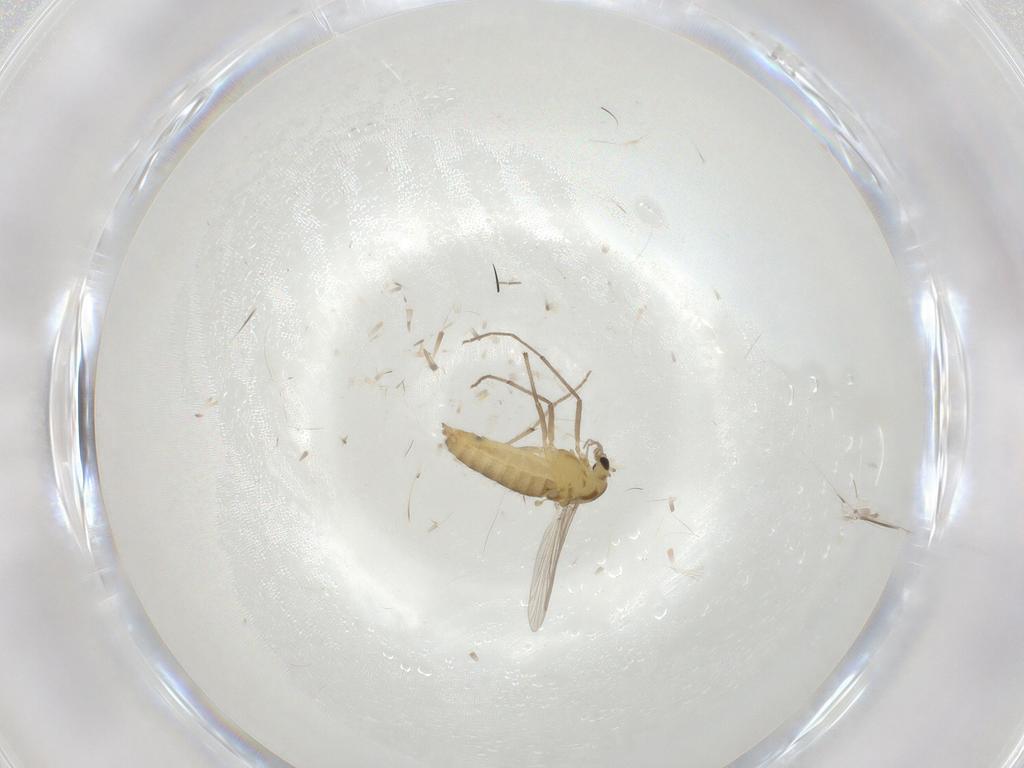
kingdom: Animalia
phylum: Arthropoda
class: Insecta
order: Diptera
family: Chironomidae
